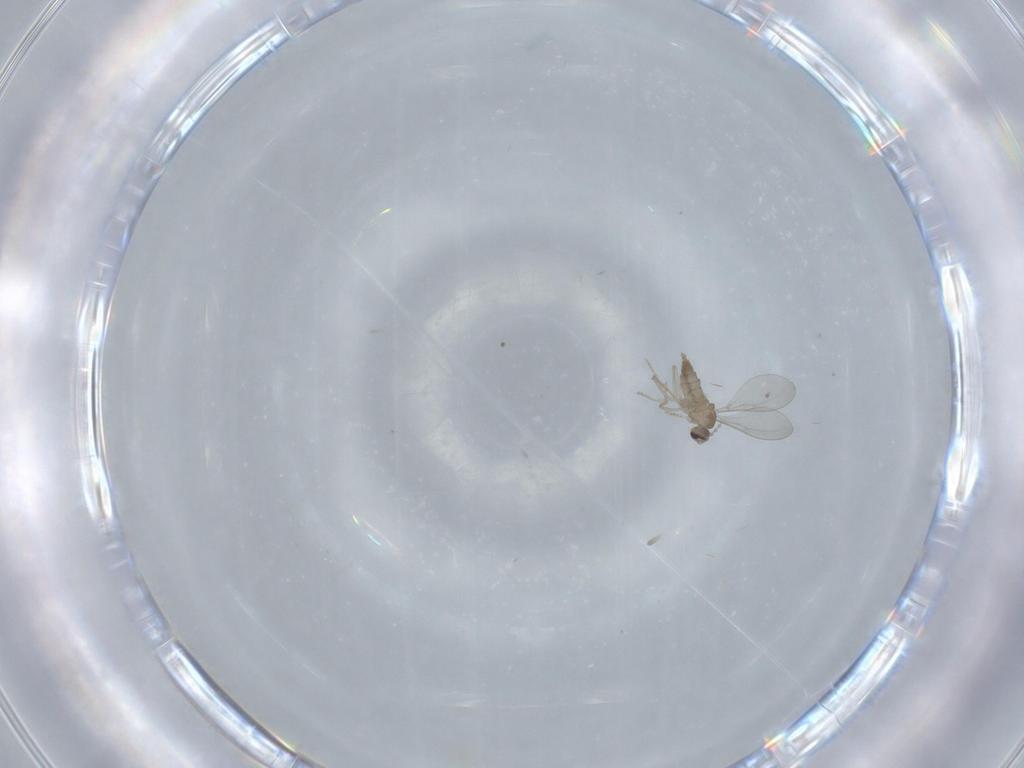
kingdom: Animalia
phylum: Arthropoda
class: Insecta
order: Diptera
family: Cecidomyiidae
